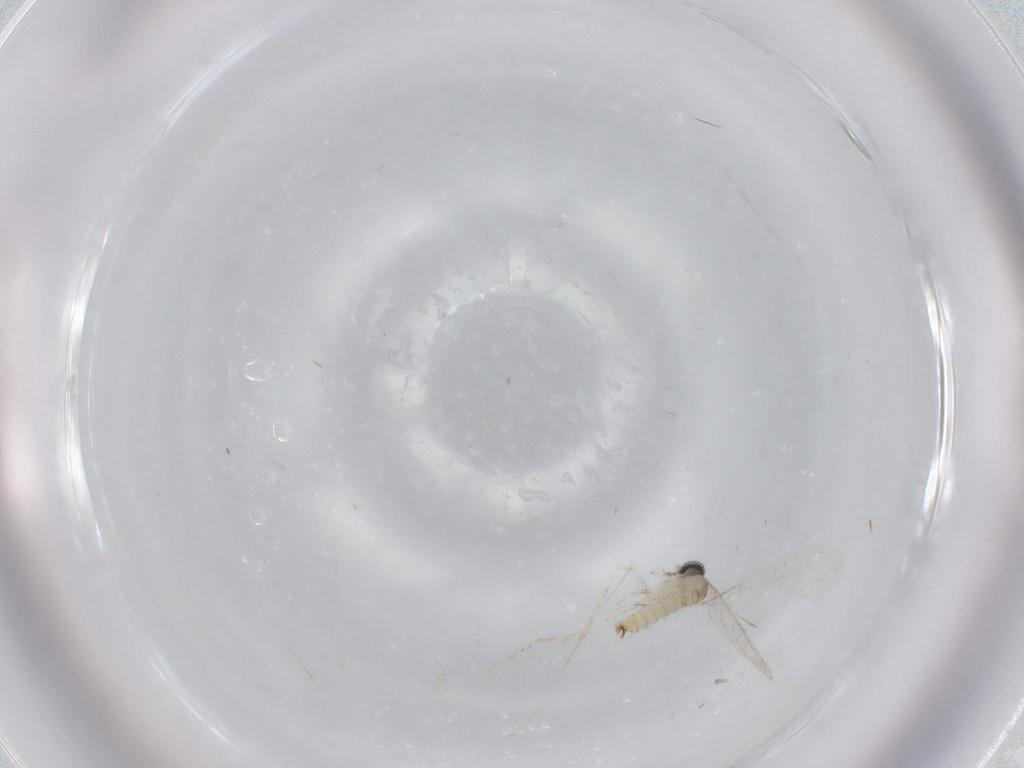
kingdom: Animalia
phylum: Arthropoda
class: Insecta
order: Diptera
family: Cecidomyiidae
